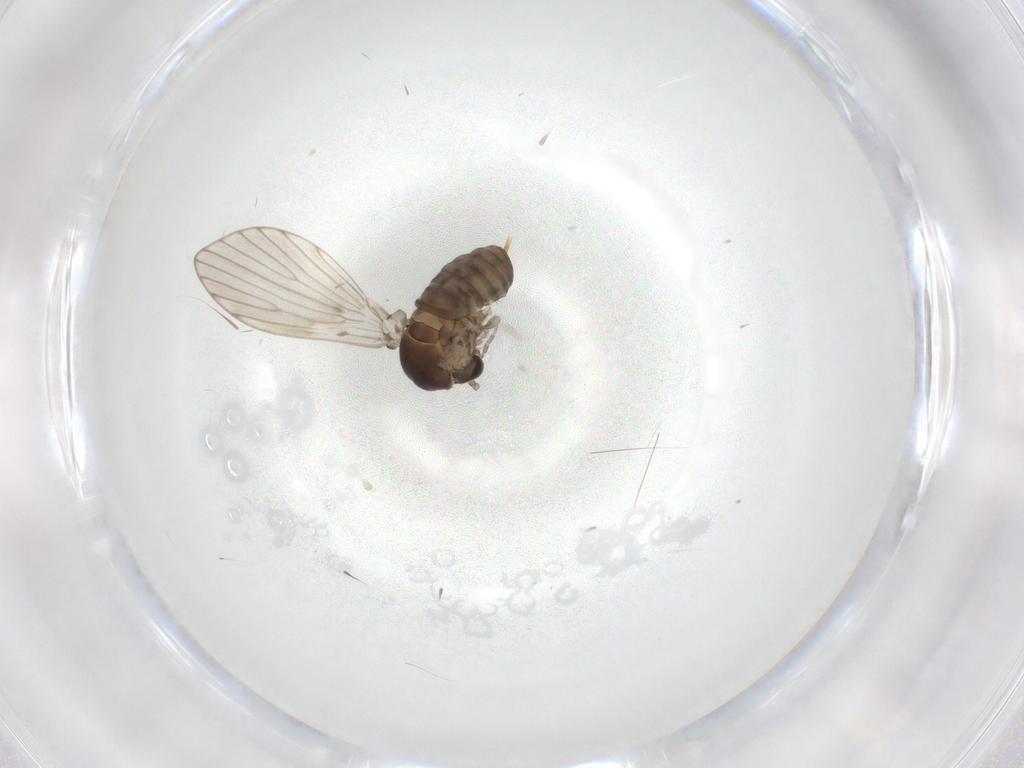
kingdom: Animalia
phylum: Arthropoda
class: Insecta
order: Diptera
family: Psychodidae
